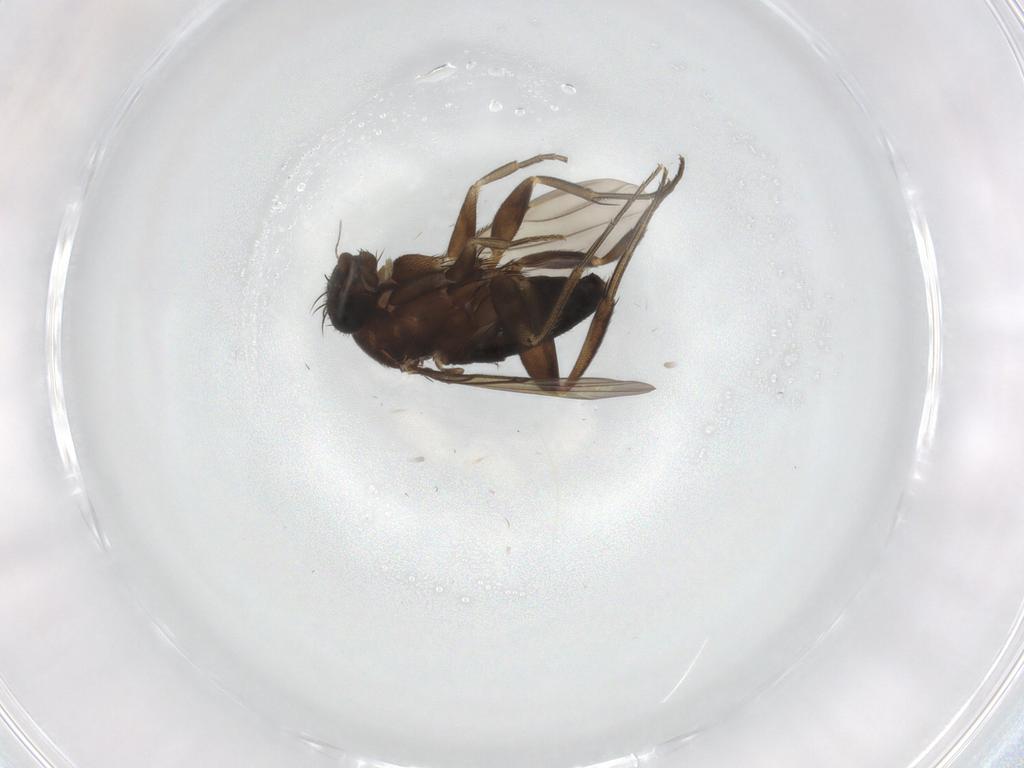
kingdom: Animalia
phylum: Arthropoda
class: Insecta
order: Diptera
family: Phoridae
